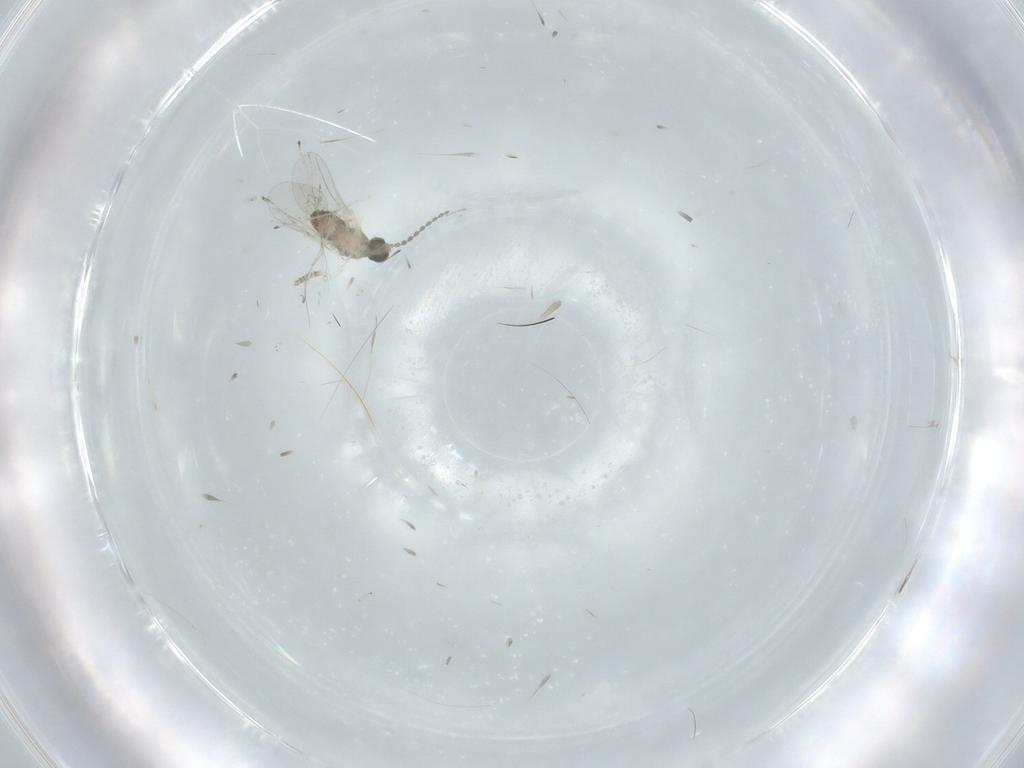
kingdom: Animalia
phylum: Arthropoda
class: Insecta
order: Diptera
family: Cecidomyiidae
